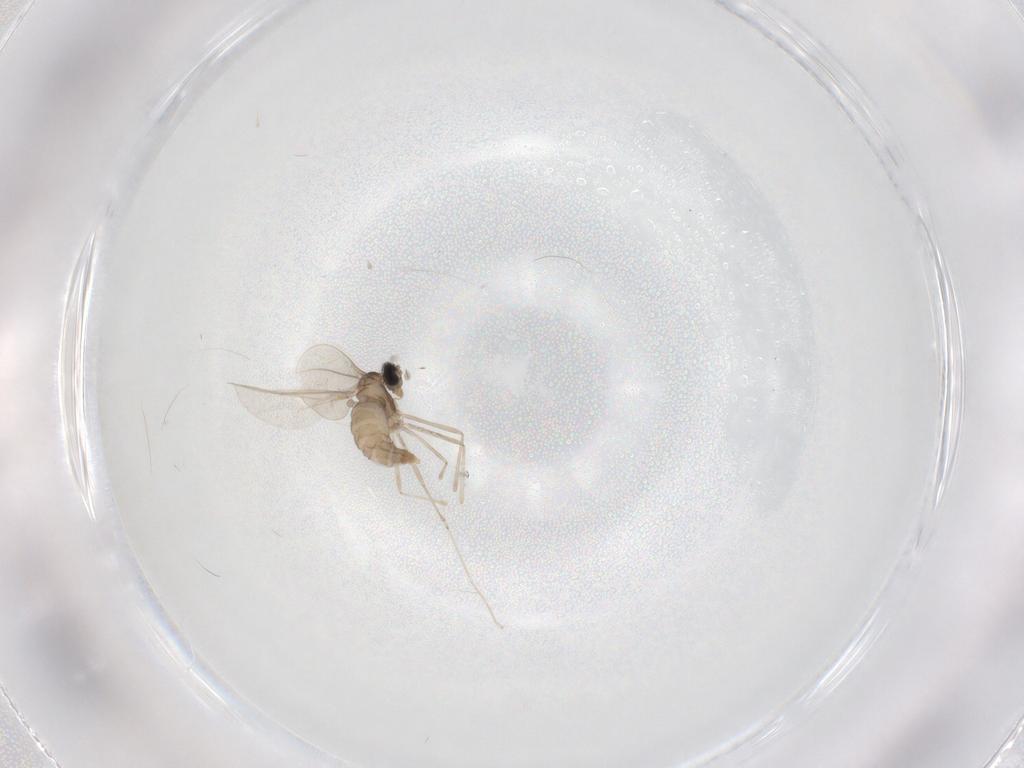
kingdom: Animalia
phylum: Arthropoda
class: Insecta
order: Diptera
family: Cecidomyiidae
